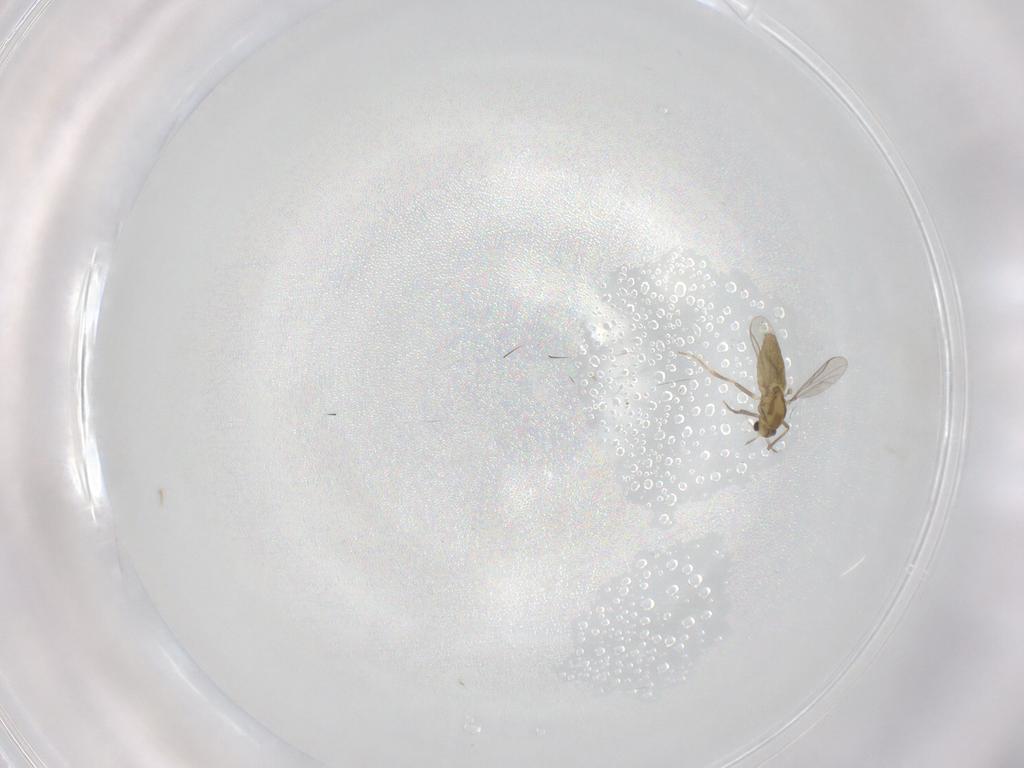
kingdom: Animalia
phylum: Arthropoda
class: Insecta
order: Diptera
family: Chironomidae
